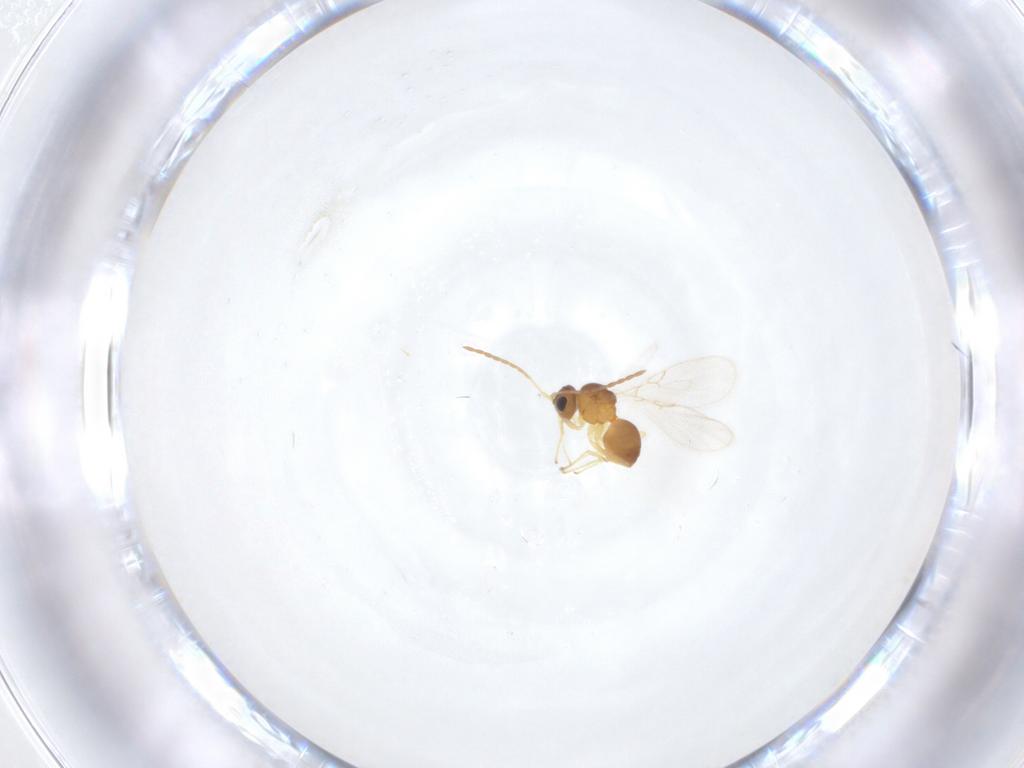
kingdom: Animalia
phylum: Arthropoda
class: Insecta
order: Hymenoptera
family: Figitidae
